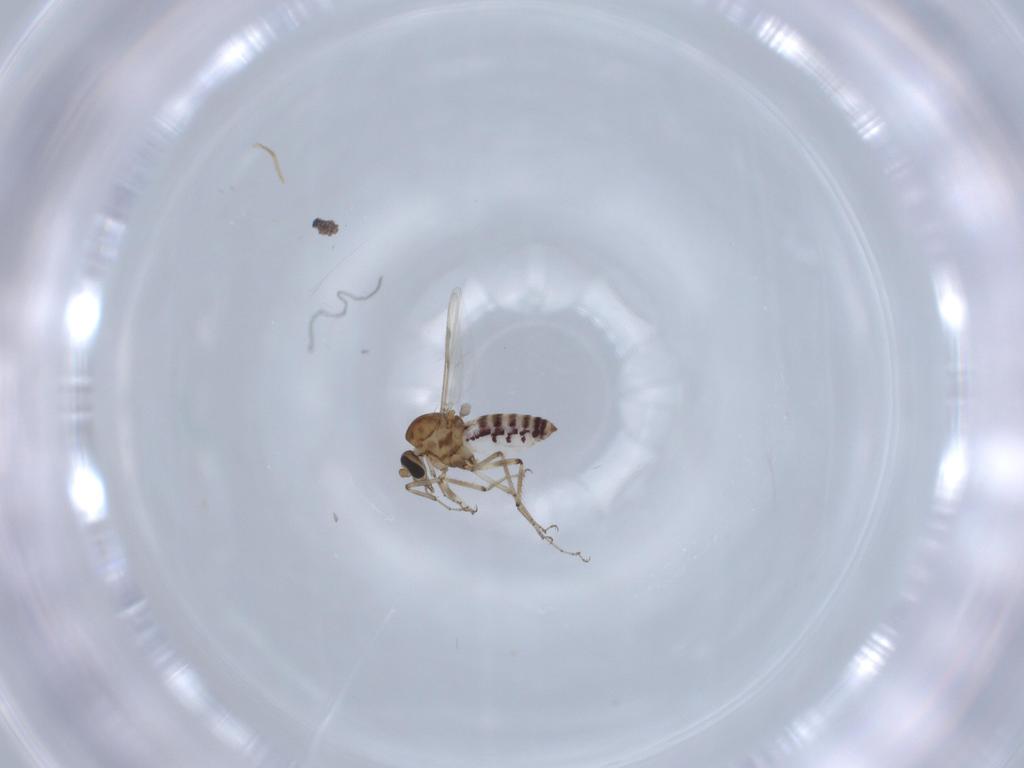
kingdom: Animalia
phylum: Arthropoda
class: Insecta
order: Diptera
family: Ceratopogonidae
